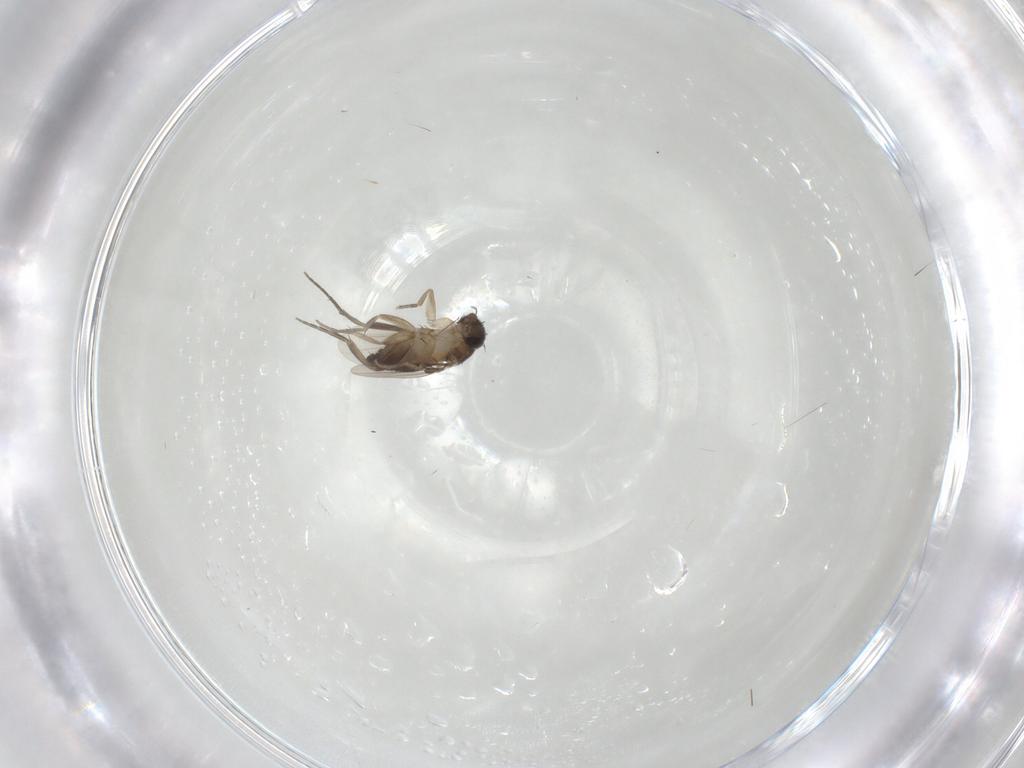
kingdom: Animalia
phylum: Arthropoda
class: Insecta
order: Diptera
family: Phoridae
